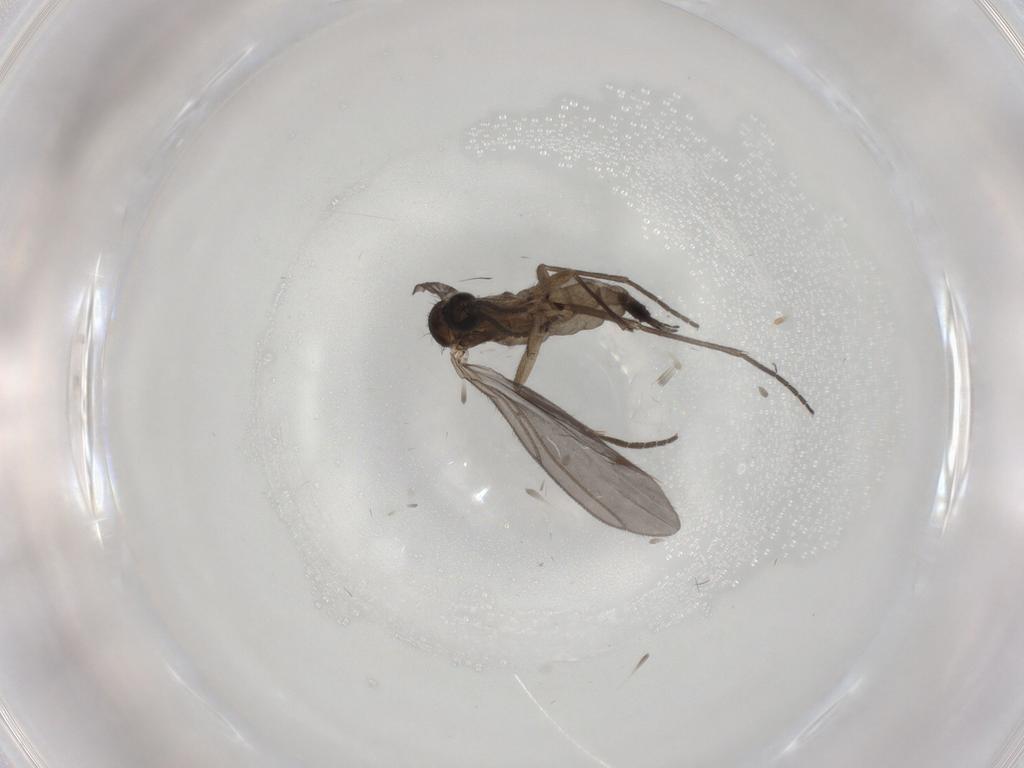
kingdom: Animalia
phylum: Arthropoda
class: Insecta
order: Diptera
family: Sciaridae
